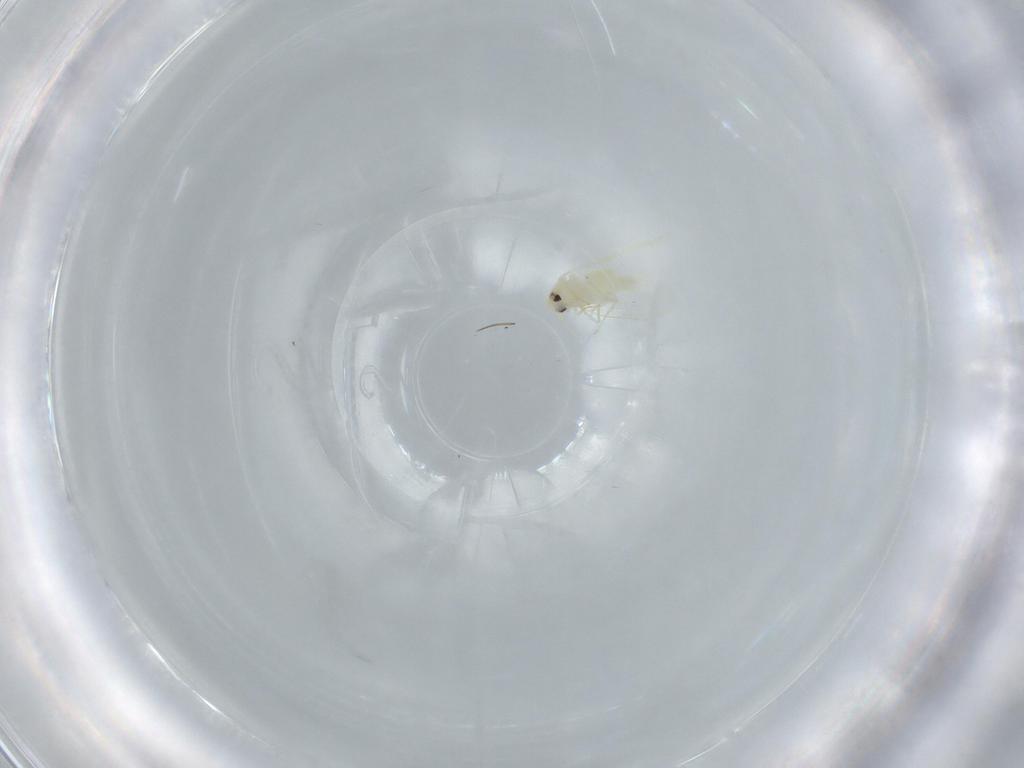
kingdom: Animalia
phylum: Arthropoda
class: Insecta
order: Hemiptera
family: Aleyrodidae
